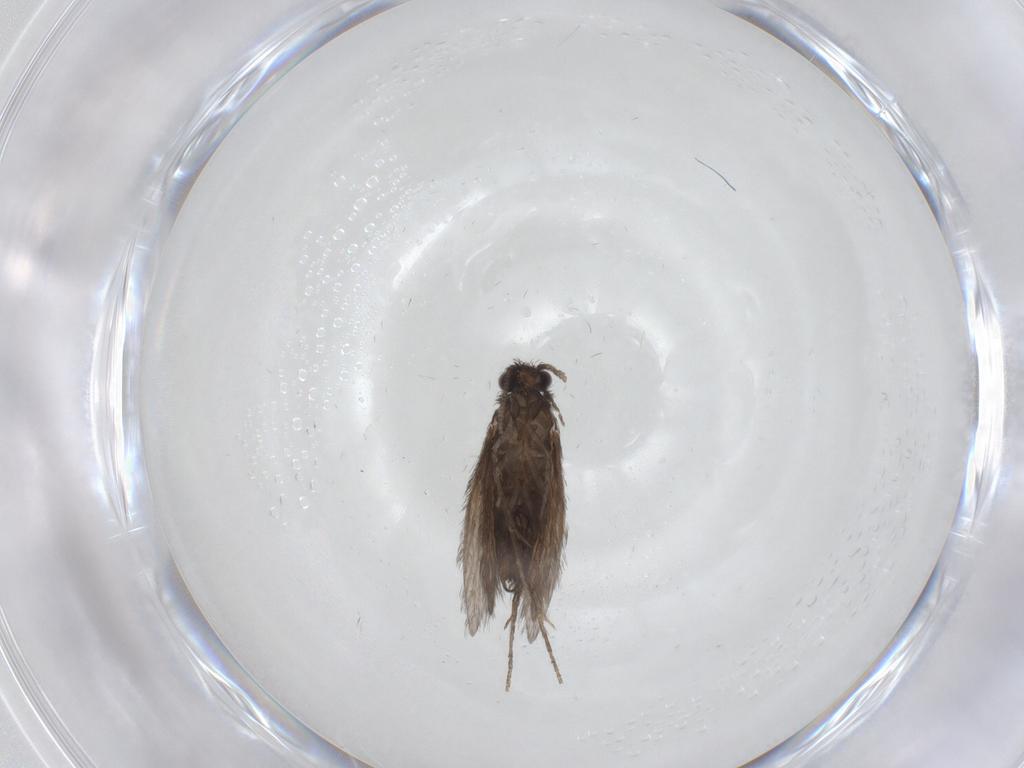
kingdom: Animalia
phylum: Arthropoda
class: Insecta
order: Trichoptera
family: Hydroptilidae
